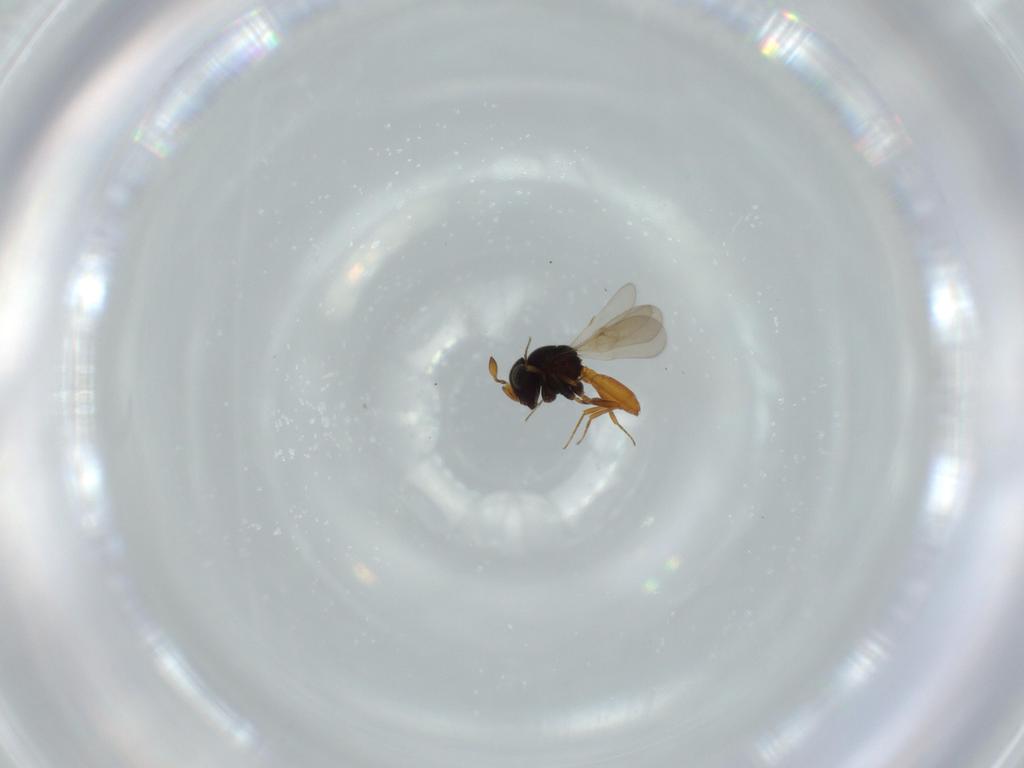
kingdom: Animalia
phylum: Arthropoda
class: Insecta
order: Hymenoptera
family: Scelionidae
